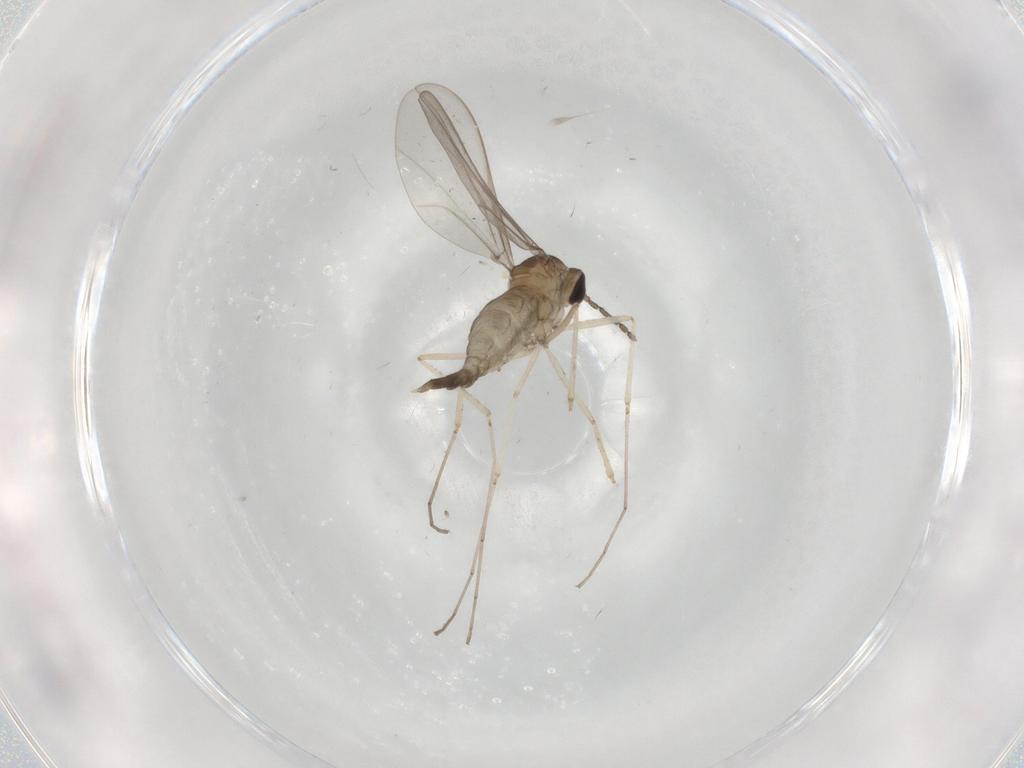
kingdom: Animalia
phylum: Arthropoda
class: Insecta
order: Diptera
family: Cecidomyiidae
